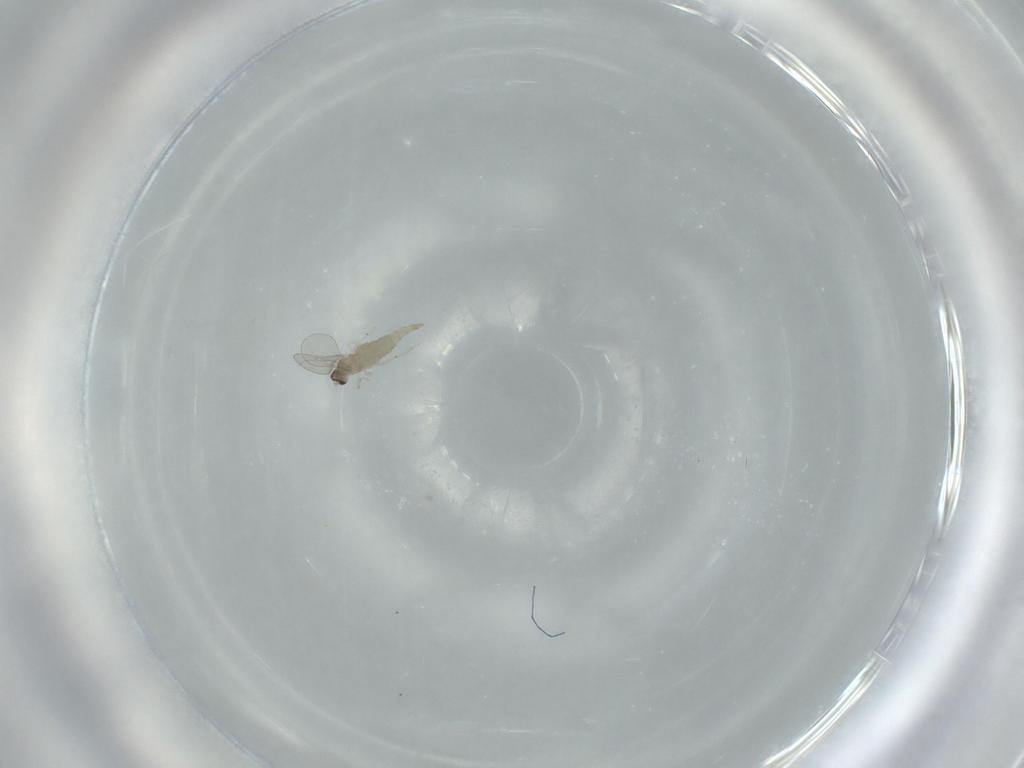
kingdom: Animalia
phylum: Arthropoda
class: Insecta
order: Diptera
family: Cecidomyiidae
